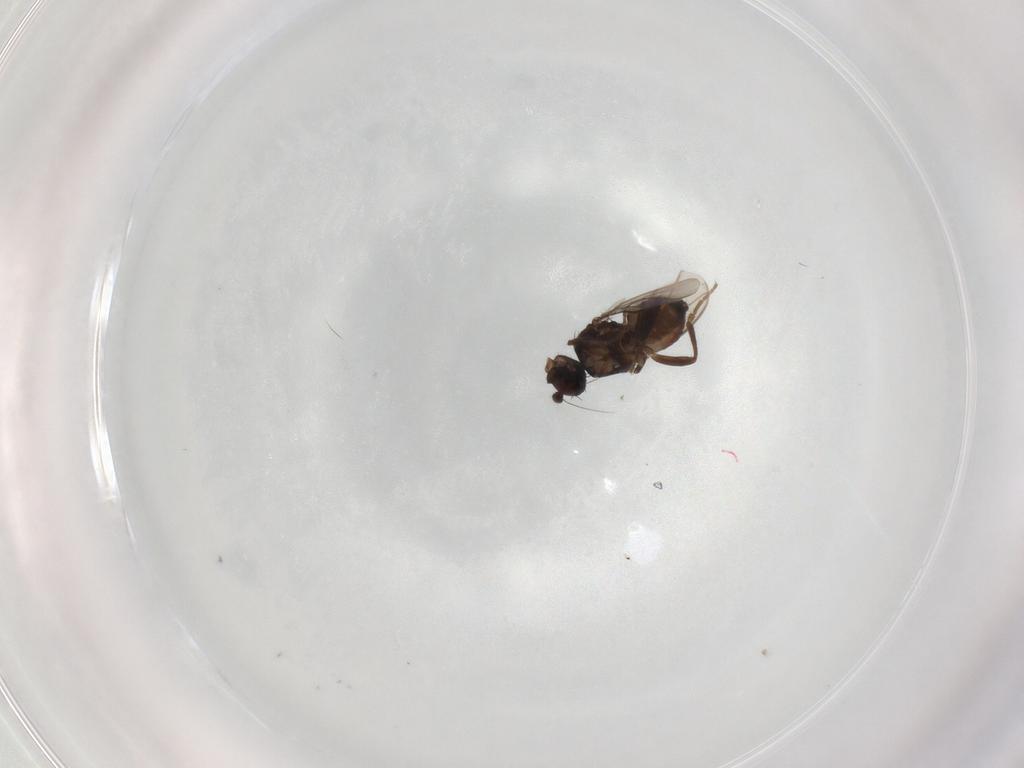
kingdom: Animalia
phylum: Arthropoda
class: Insecta
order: Diptera
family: Sphaeroceridae
